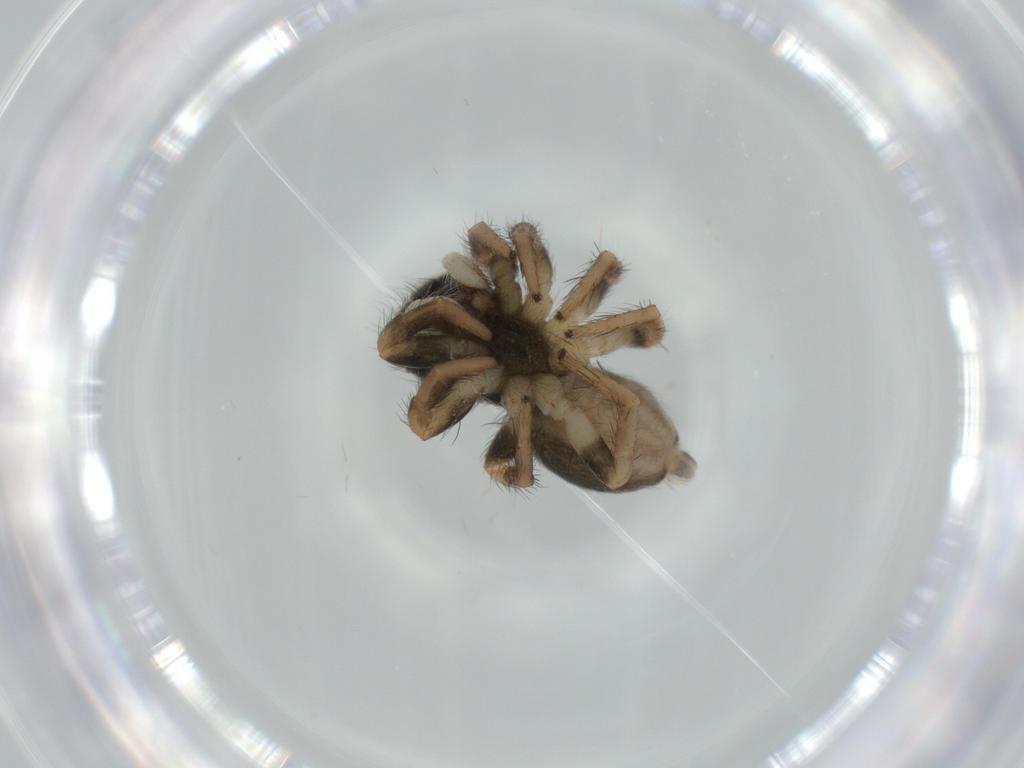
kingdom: Animalia
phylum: Arthropoda
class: Arachnida
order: Araneae
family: Salticidae
